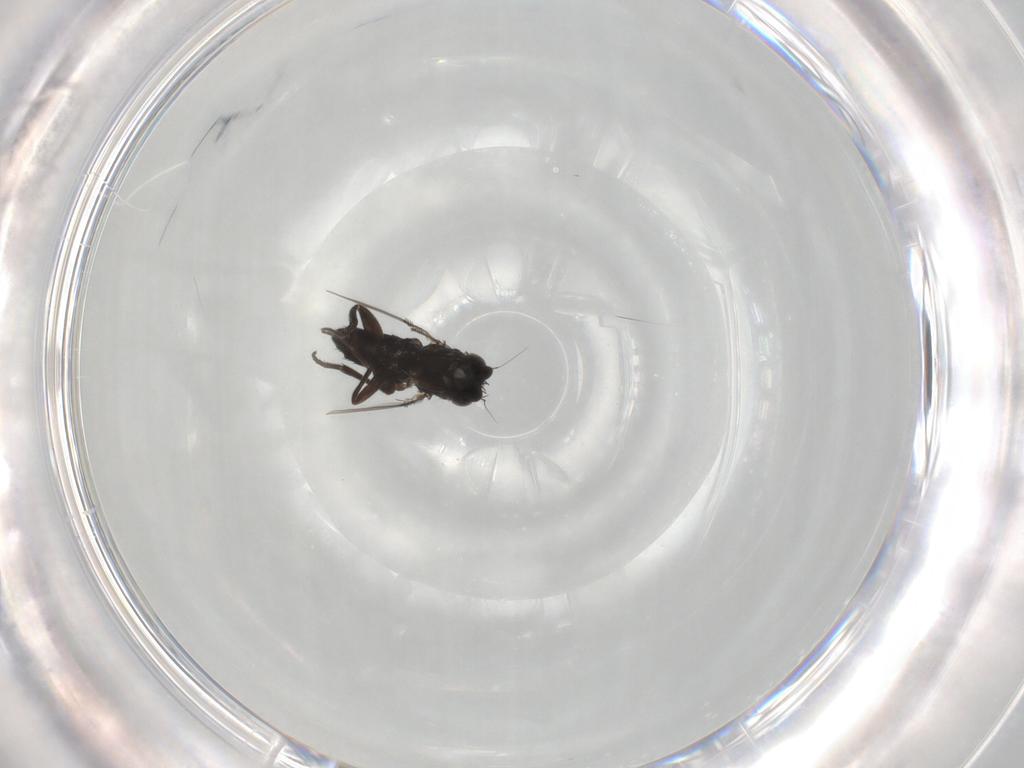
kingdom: Animalia
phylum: Arthropoda
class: Insecta
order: Diptera
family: Phoridae
